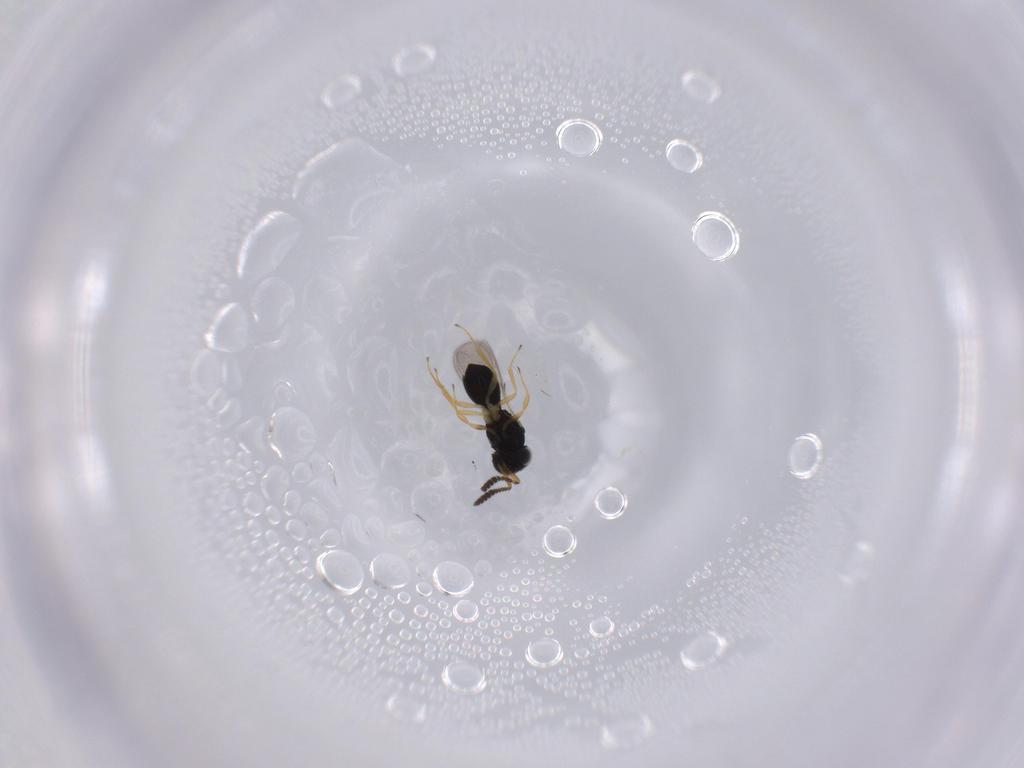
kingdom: Animalia
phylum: Arthropoda
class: Insecta
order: Hymenoptera
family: Scelionidae
